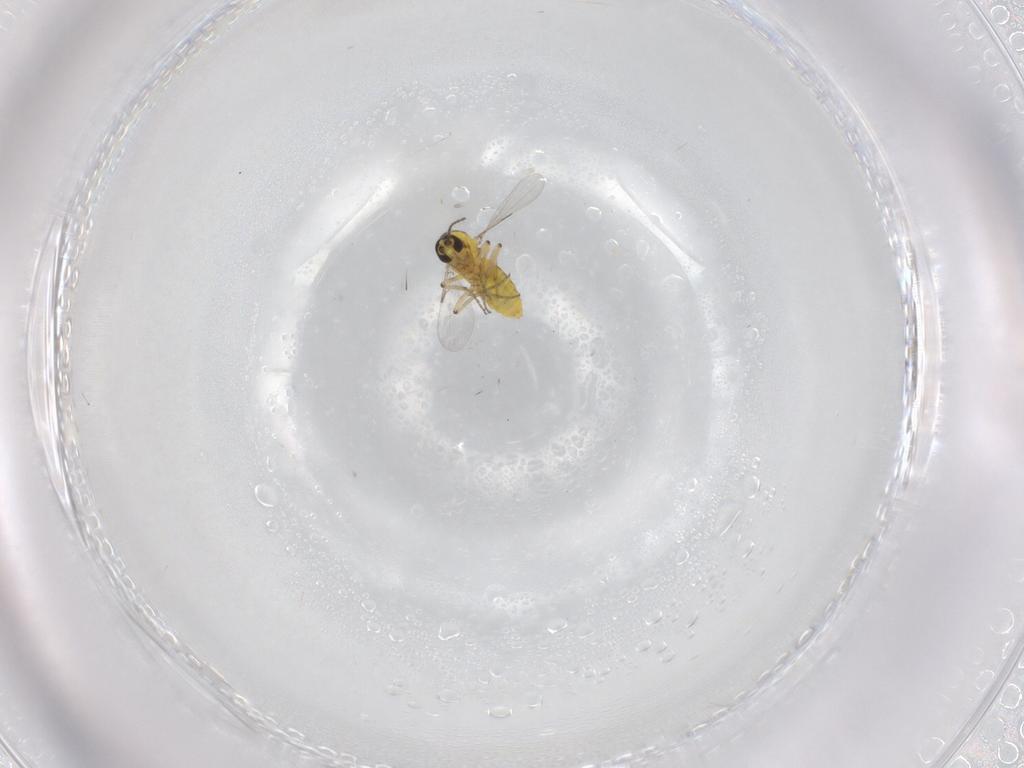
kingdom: Animalia
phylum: Arthropoda
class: Insecta
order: Diptera
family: Ceratopogonidae
